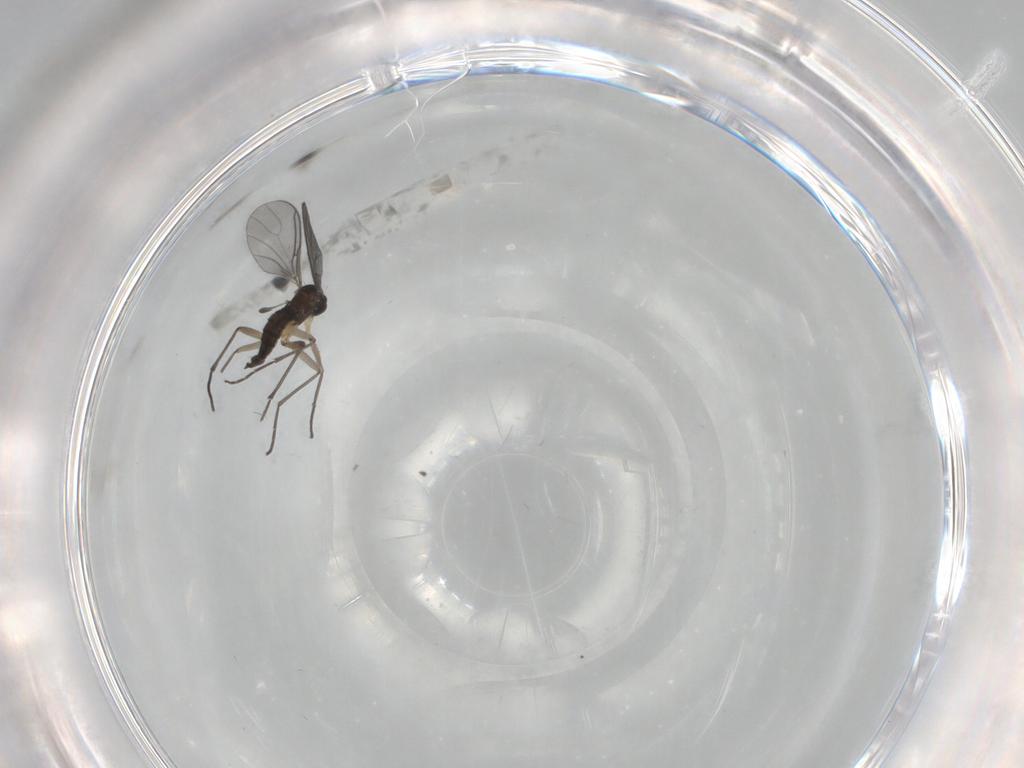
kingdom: Animalia
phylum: Arthropoda
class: Insecta
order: Diptera
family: Hybotidae
